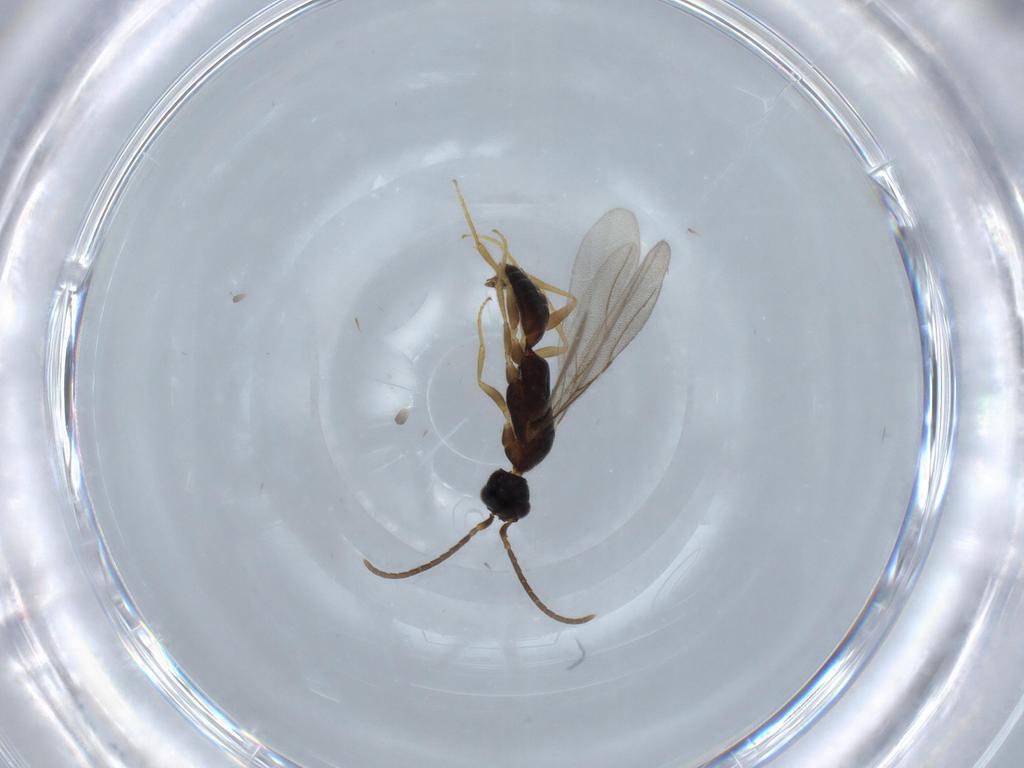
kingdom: Animalia
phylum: Arthropoda
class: Insecta
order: Hymenoptera
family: Bethylidae
